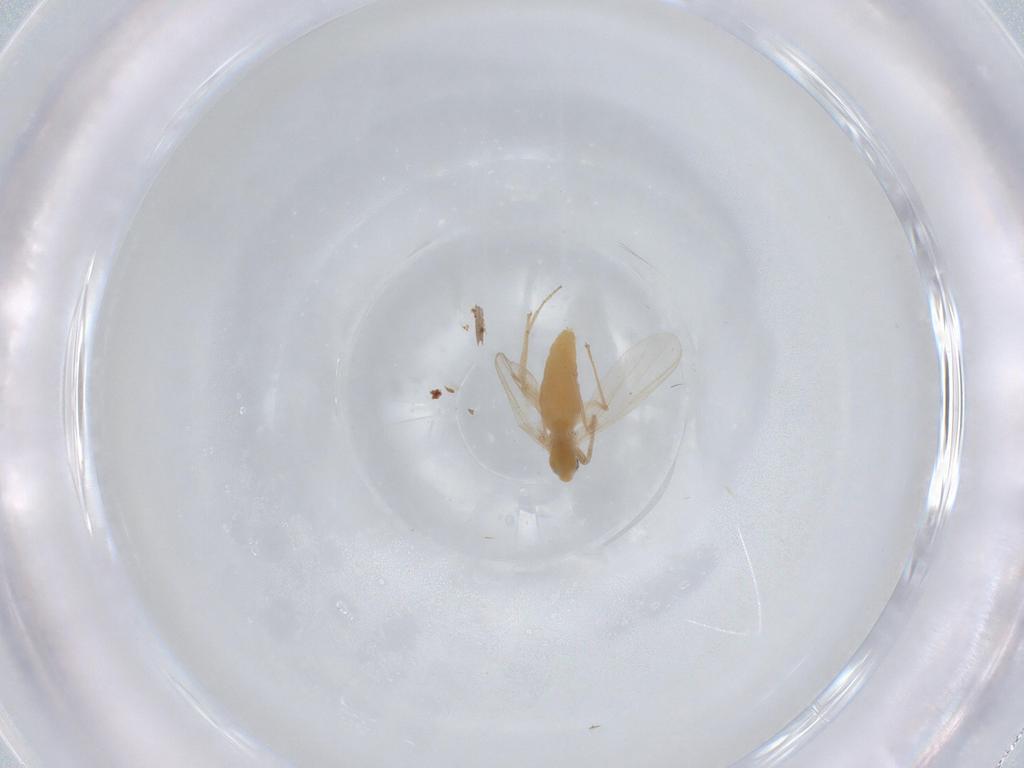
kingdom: Animalia
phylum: Arthropoda
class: Insecta
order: Diptera
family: Chironomidae
